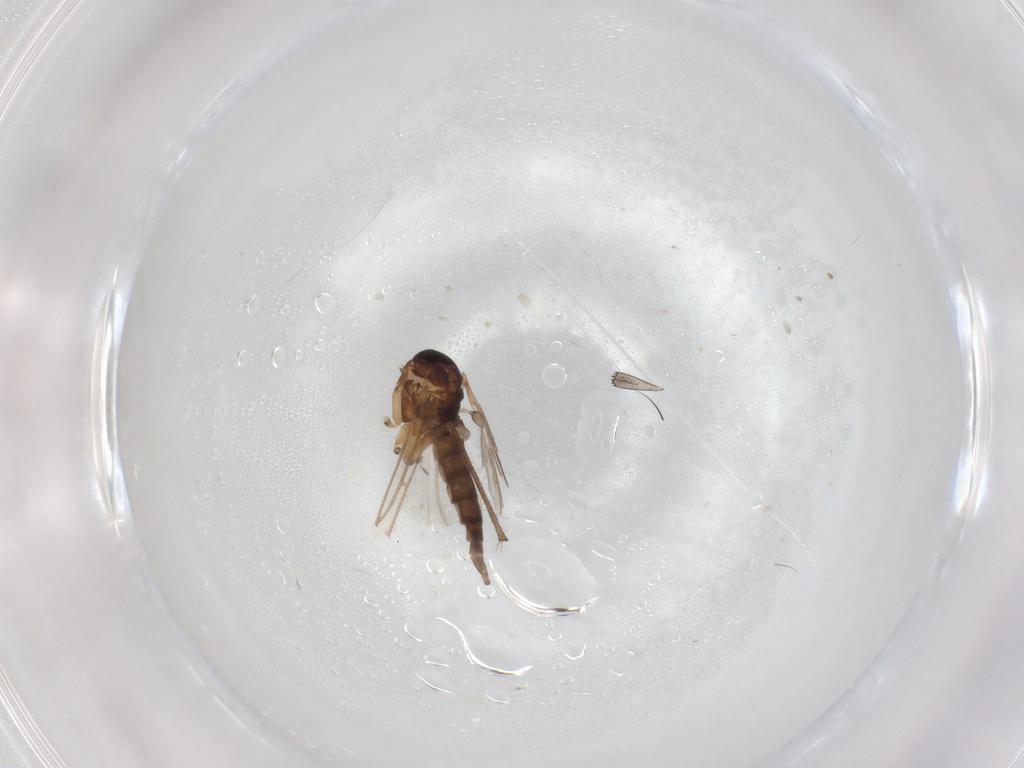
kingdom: Animalia
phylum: Arthropoda
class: Insecta
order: Diptera
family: Sciaridae
